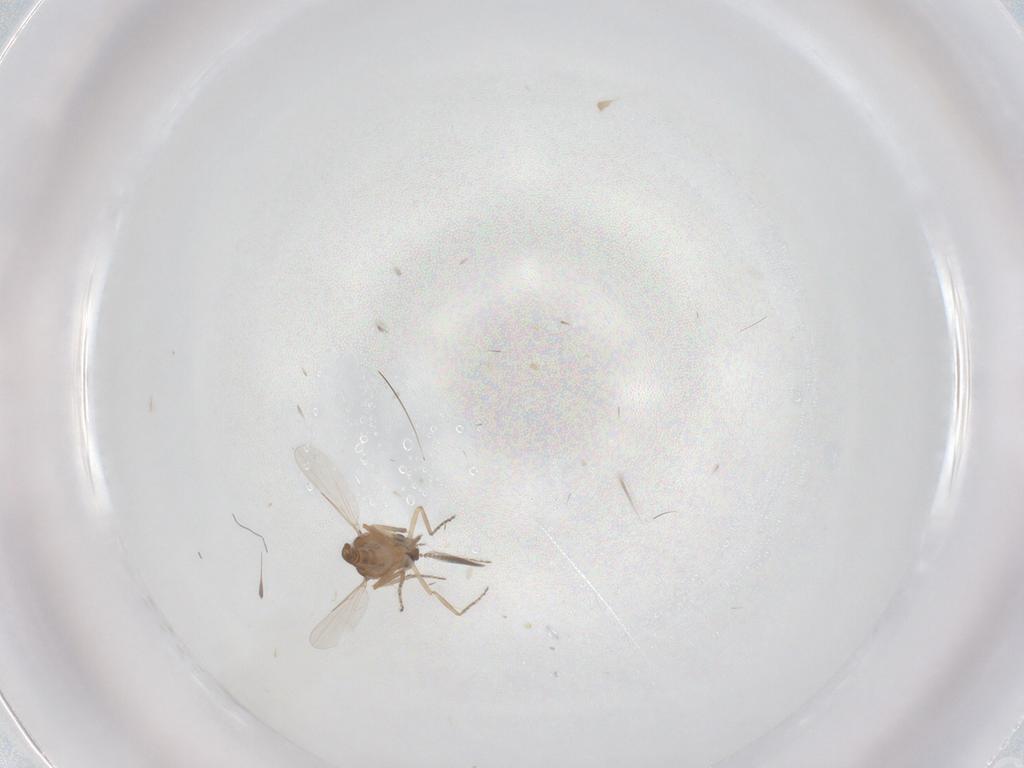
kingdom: Animalia
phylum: Arthropoda
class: Insecta
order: Diptera
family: Ceratopogonidae
